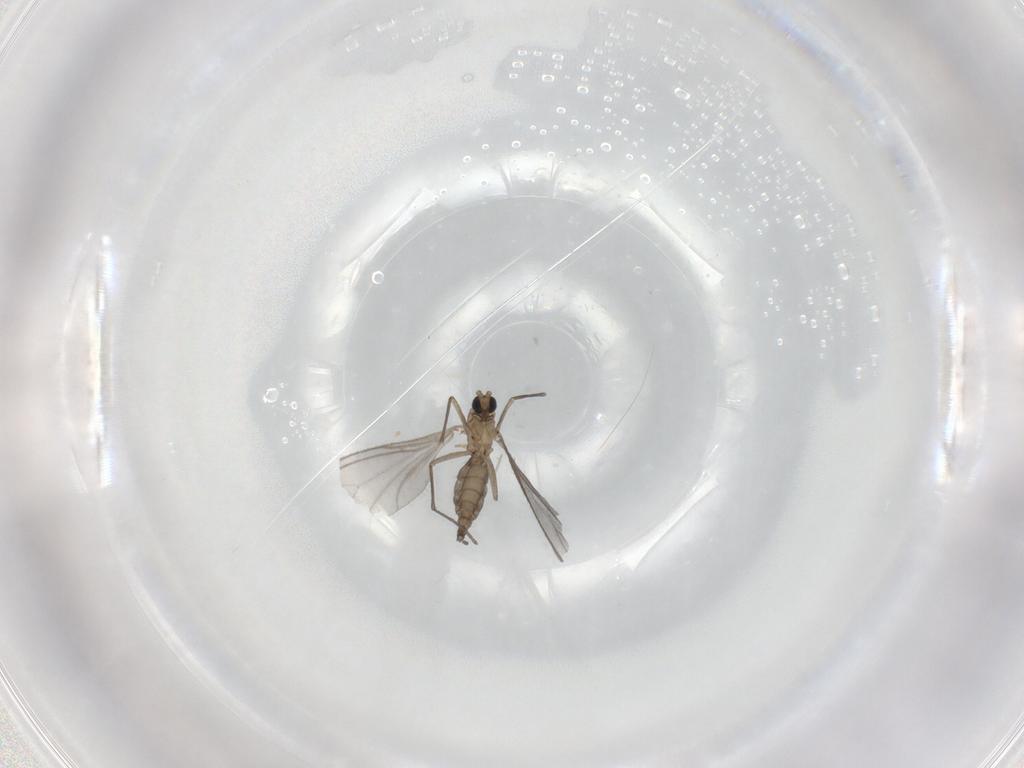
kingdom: Animalia
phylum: Arthropoda
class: Insecta
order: Diptera
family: Sciaridae
